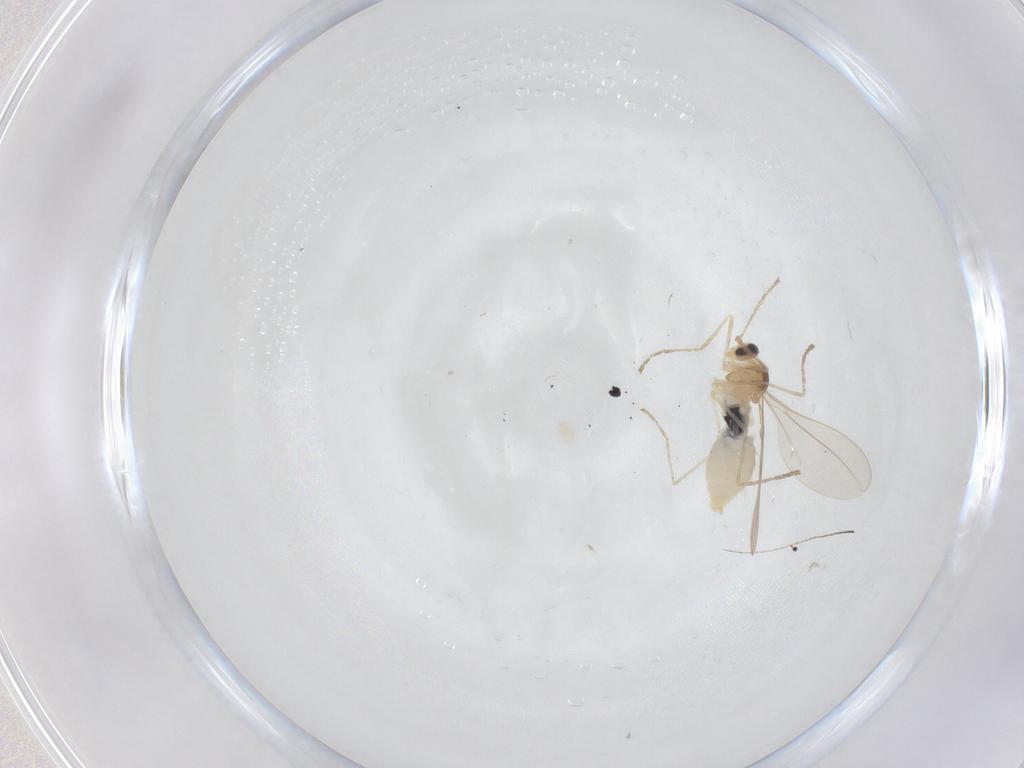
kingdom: Animalia
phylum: Arthropoda
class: Insecta
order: Diptera
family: Cecidomyiidae
